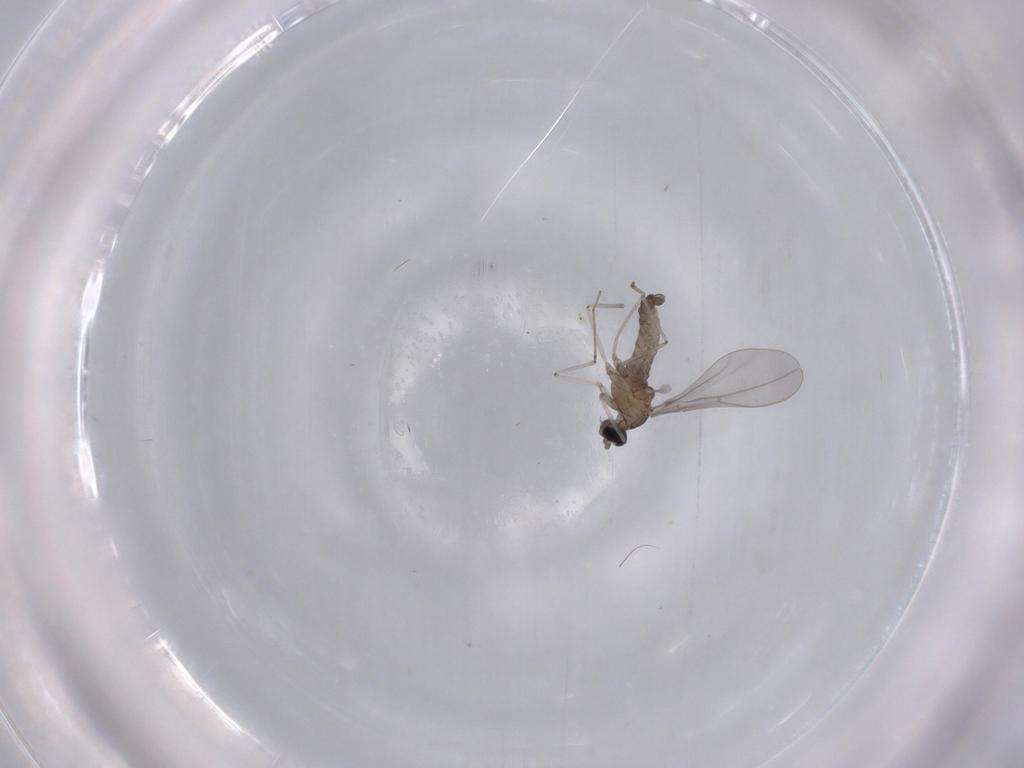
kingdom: Animalia
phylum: Arthropoda
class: Insecta
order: Diptera
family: Cecidomyiidae
